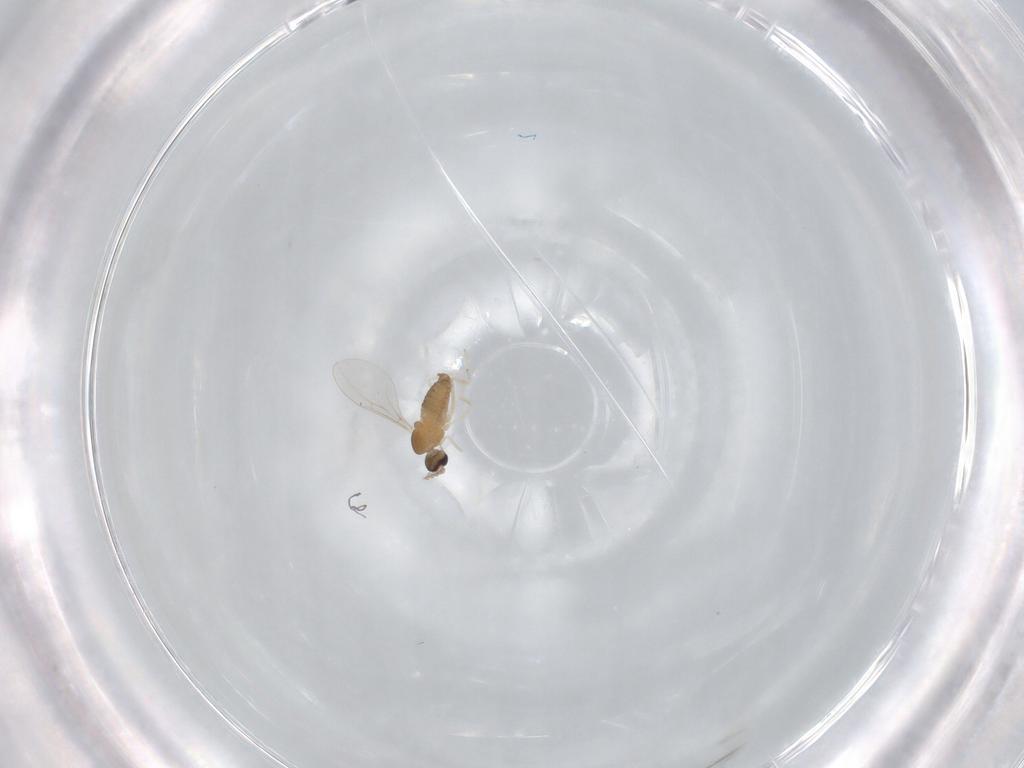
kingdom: Animalia
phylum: Arthropoda
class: Insecta
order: Diptera
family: Cecidomyiidae
